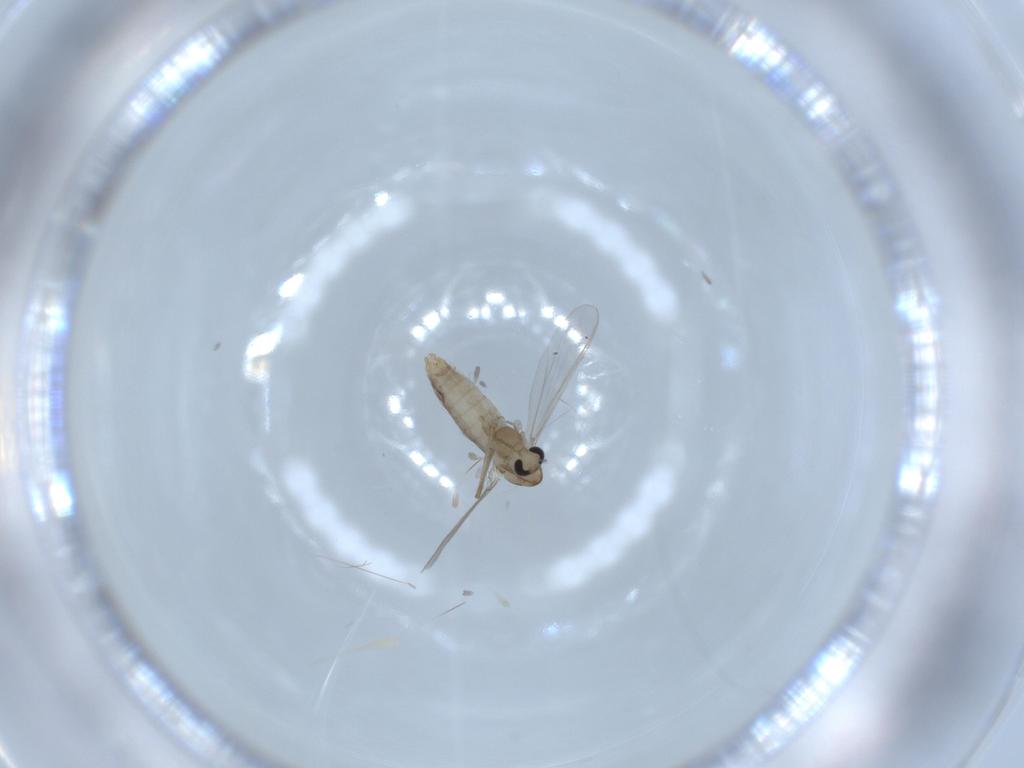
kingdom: Animalia
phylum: Arthropoda
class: Insecta
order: Diptera
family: Chironomidae
